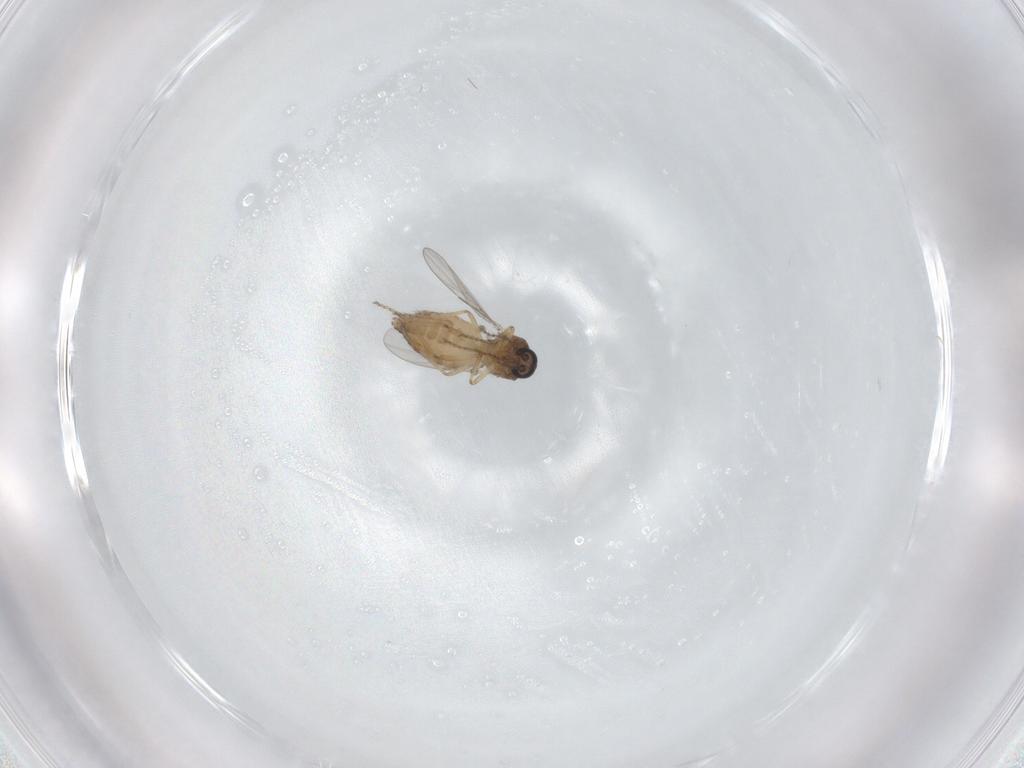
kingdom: Animalia
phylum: Arthropoda
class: Insecta
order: Diptera
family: Ceratopogonidae
